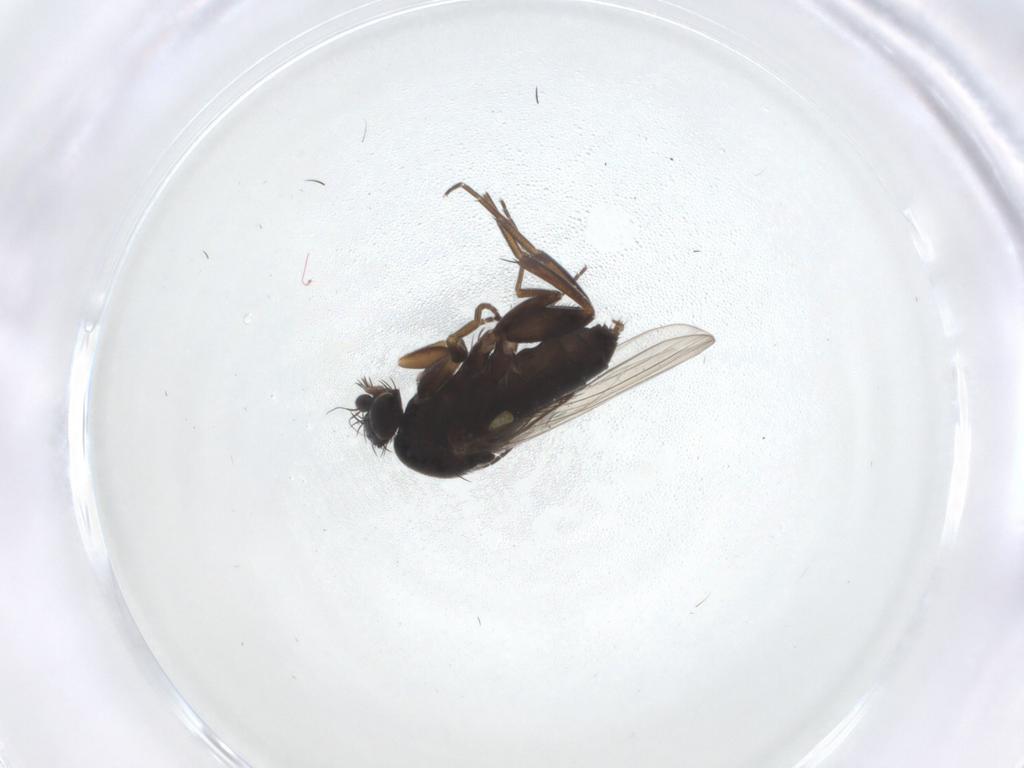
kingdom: Animalia
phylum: Arthropoda
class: Insecta
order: Diptera
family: Phoridae
